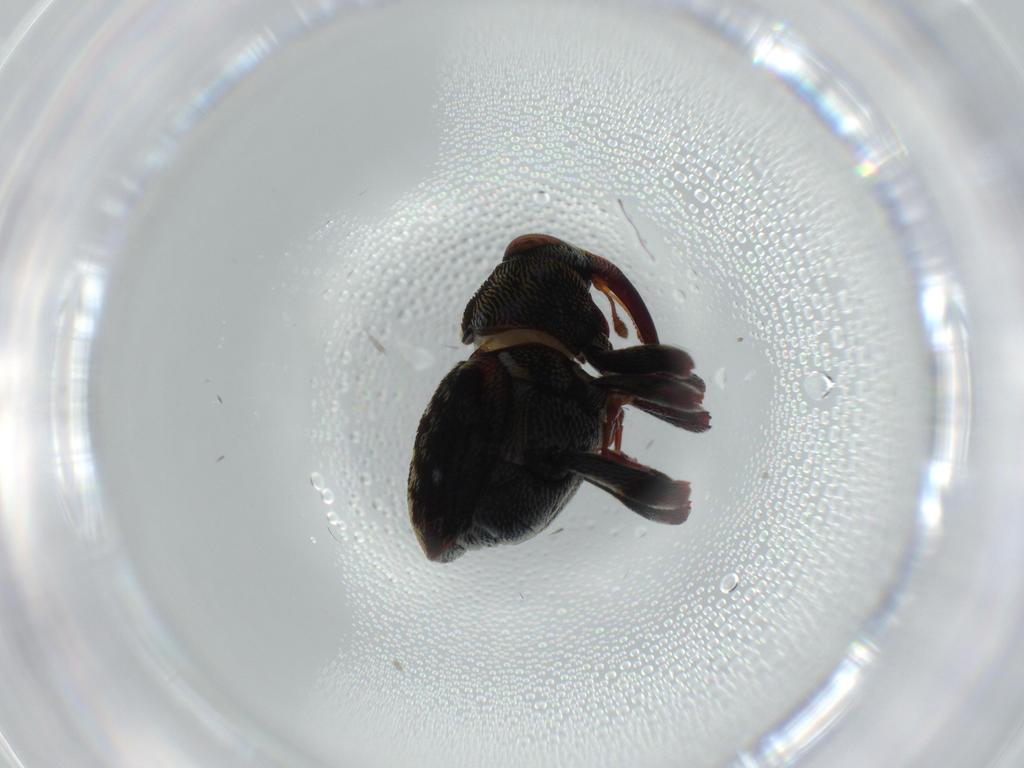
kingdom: Animalia
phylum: Arthropoda
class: Insecta
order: Coleoptera
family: Curculionidae
